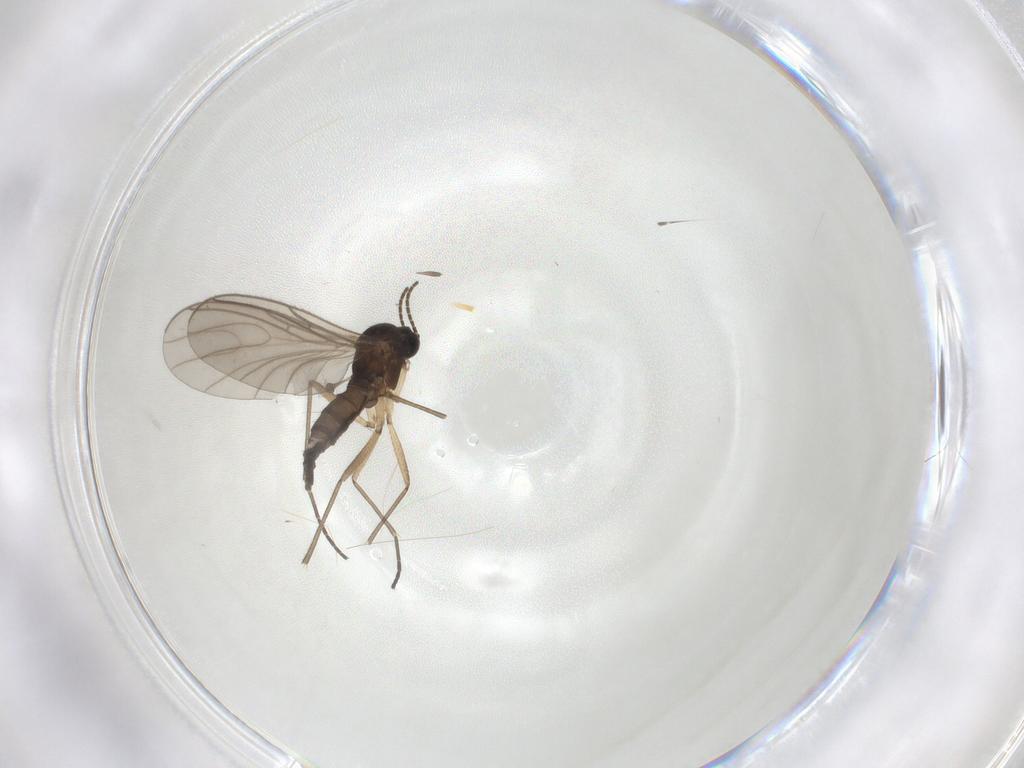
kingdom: Animalia
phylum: Arthropoda
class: Insecta
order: Diptera
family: Sciaridae
